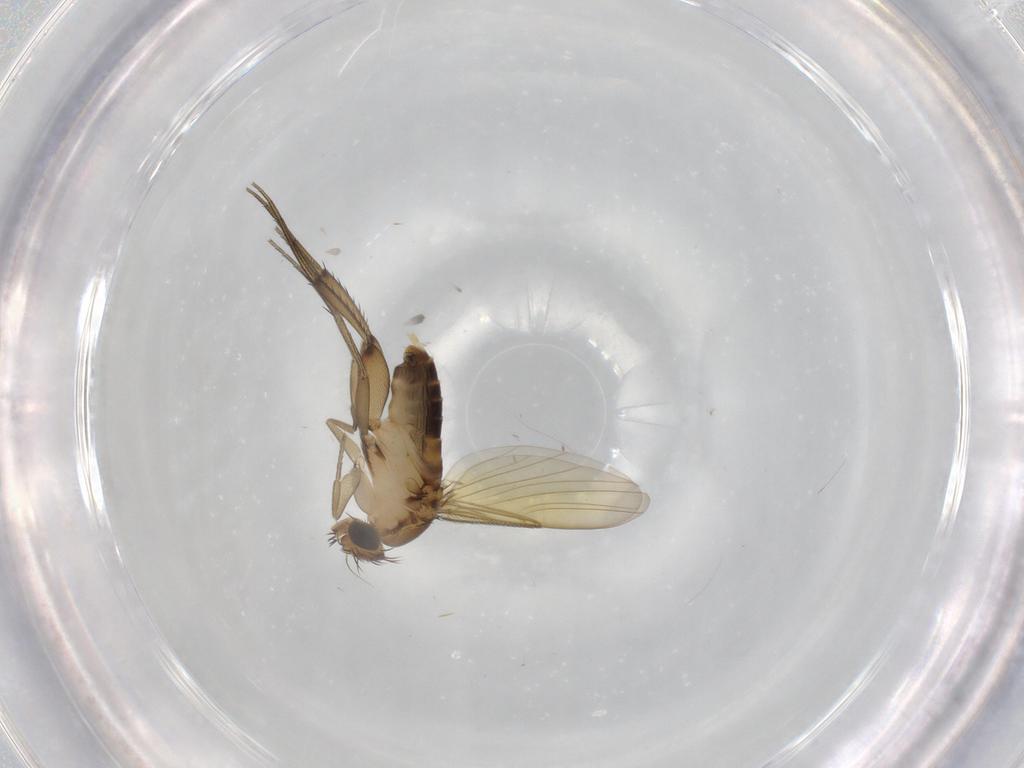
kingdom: Animalia
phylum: Arthropoda
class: Insecta
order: Diptera
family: Phoridae
